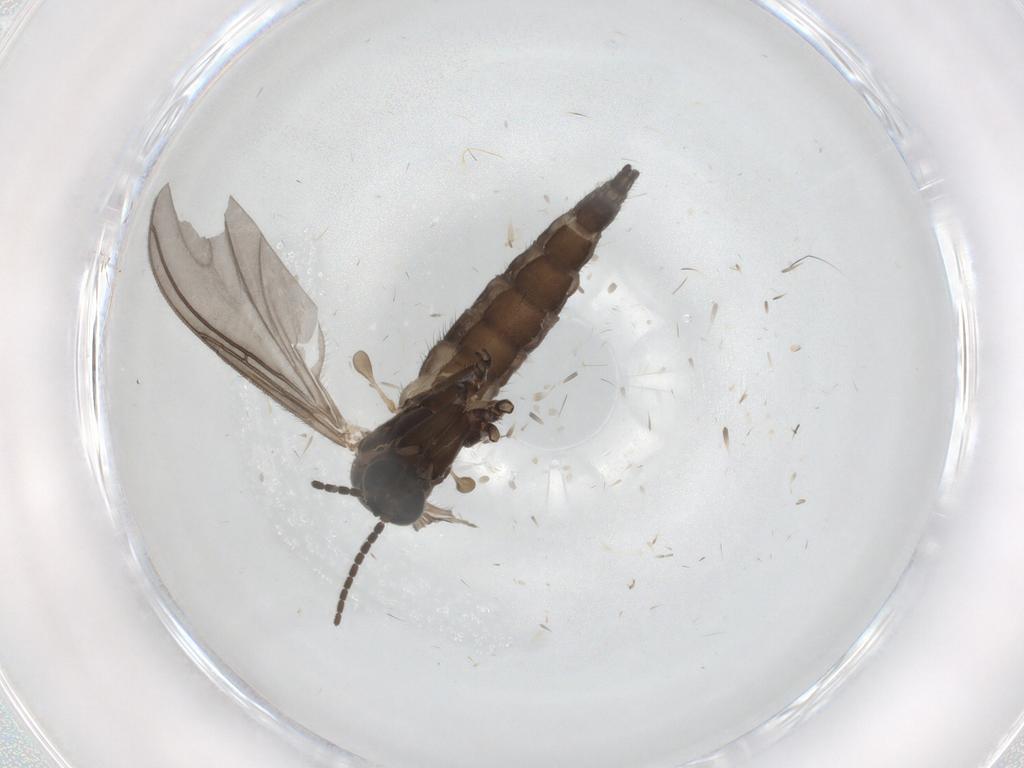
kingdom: Animalia
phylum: Arthropoda
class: Insecta
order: Diptera
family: Sciaridae
